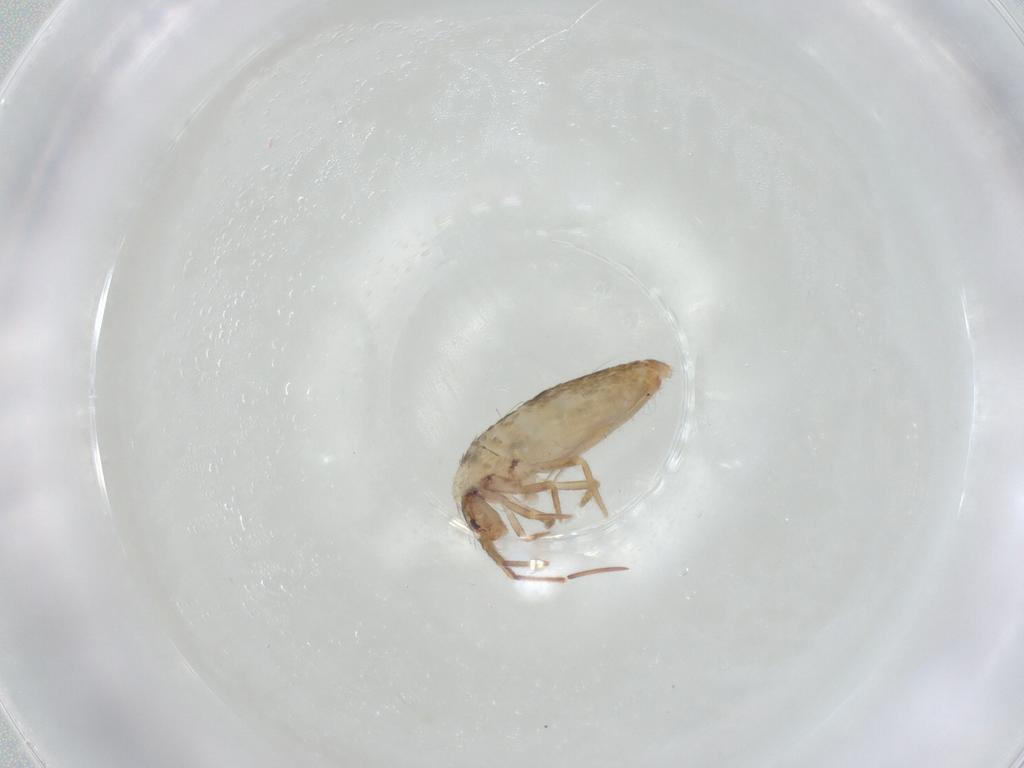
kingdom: Animalia
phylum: Arthropoda
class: Collembola
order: Entomobryomorpha
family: Entomobryidae
